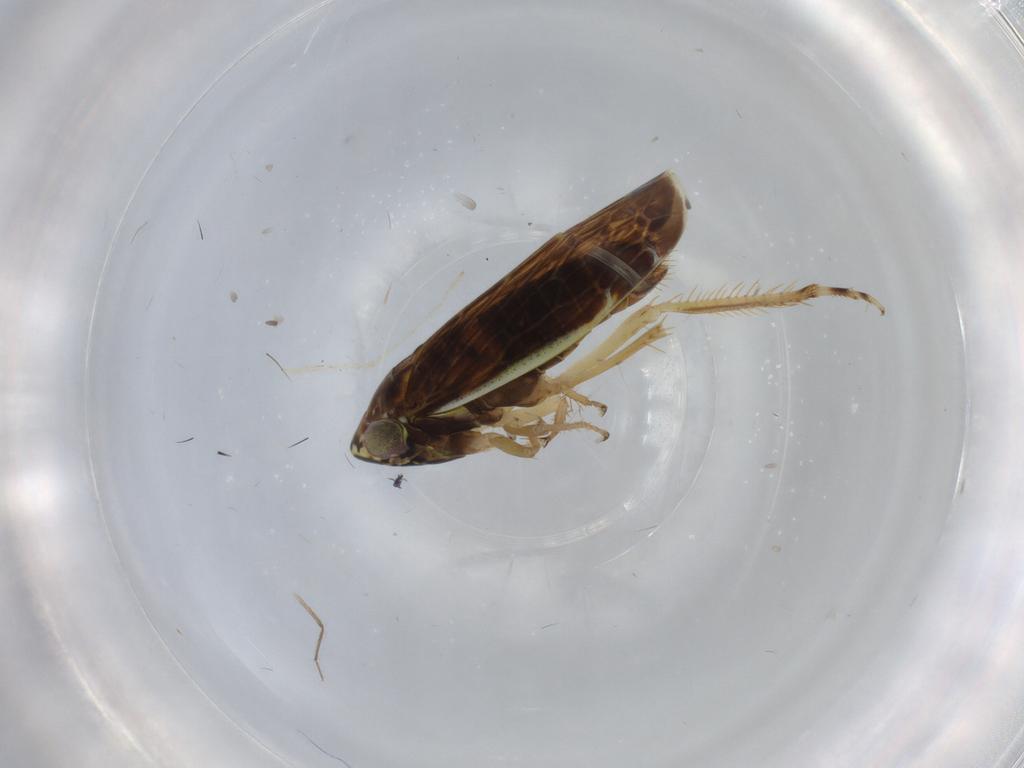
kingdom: Animalia
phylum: Arthropoda
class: Insecta
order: Hemiptera
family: Cicadellidae
